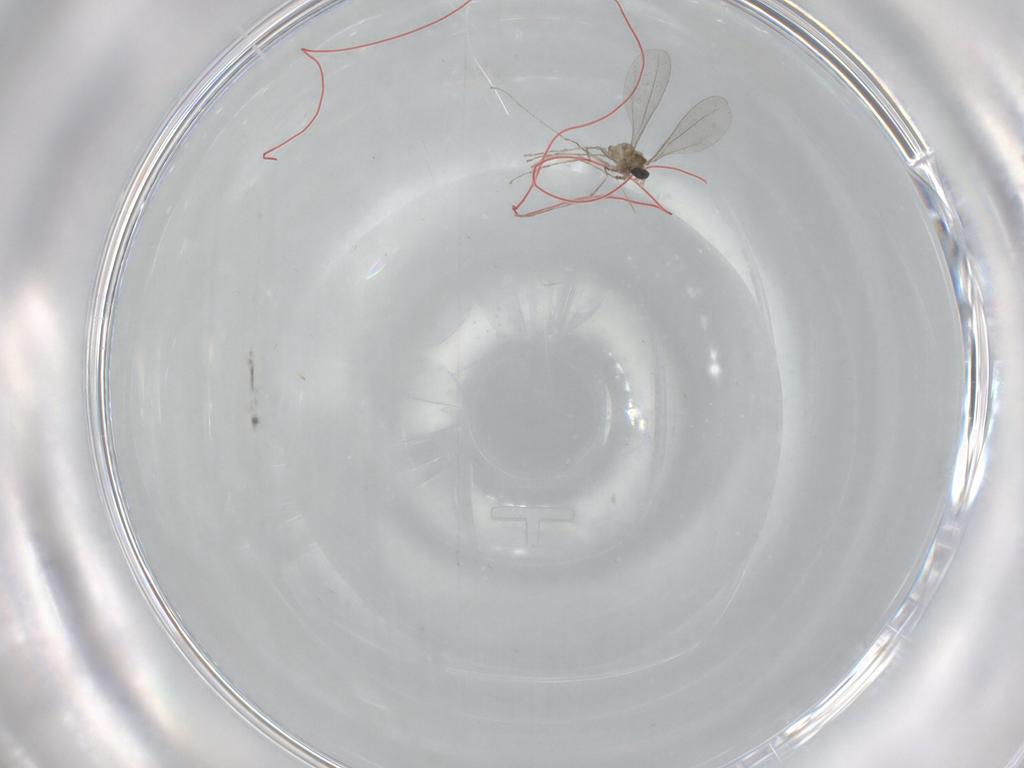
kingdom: Animalia
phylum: Arthropoda
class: Insecta
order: Diptera
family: Cecidomyiidae
